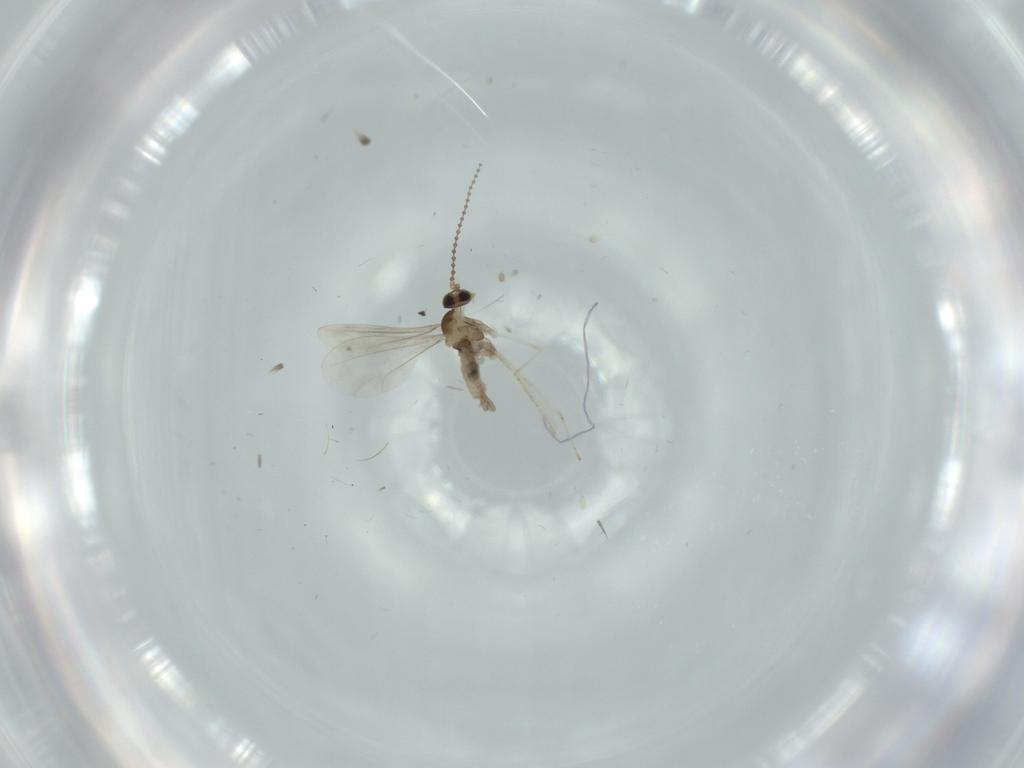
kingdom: Animalia
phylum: Arthropoda
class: Insecta
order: Diptera
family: Cecidomyiidae
